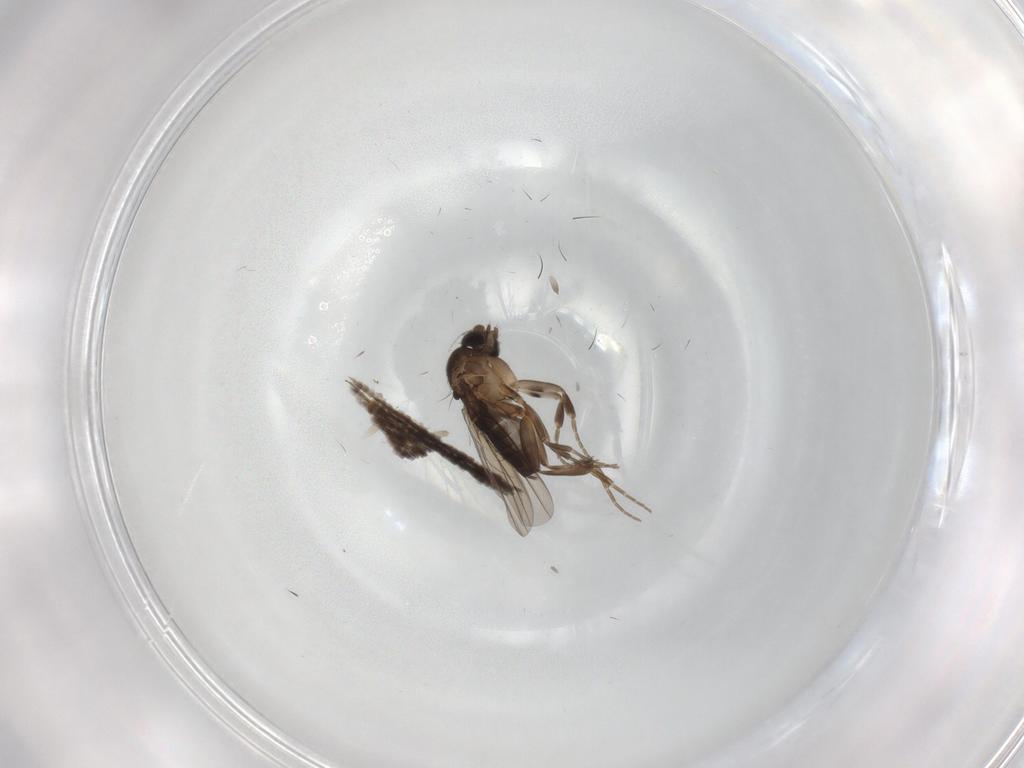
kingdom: Animalia
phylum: Arthropoda
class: Insecta
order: Diptera
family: Phoridae
